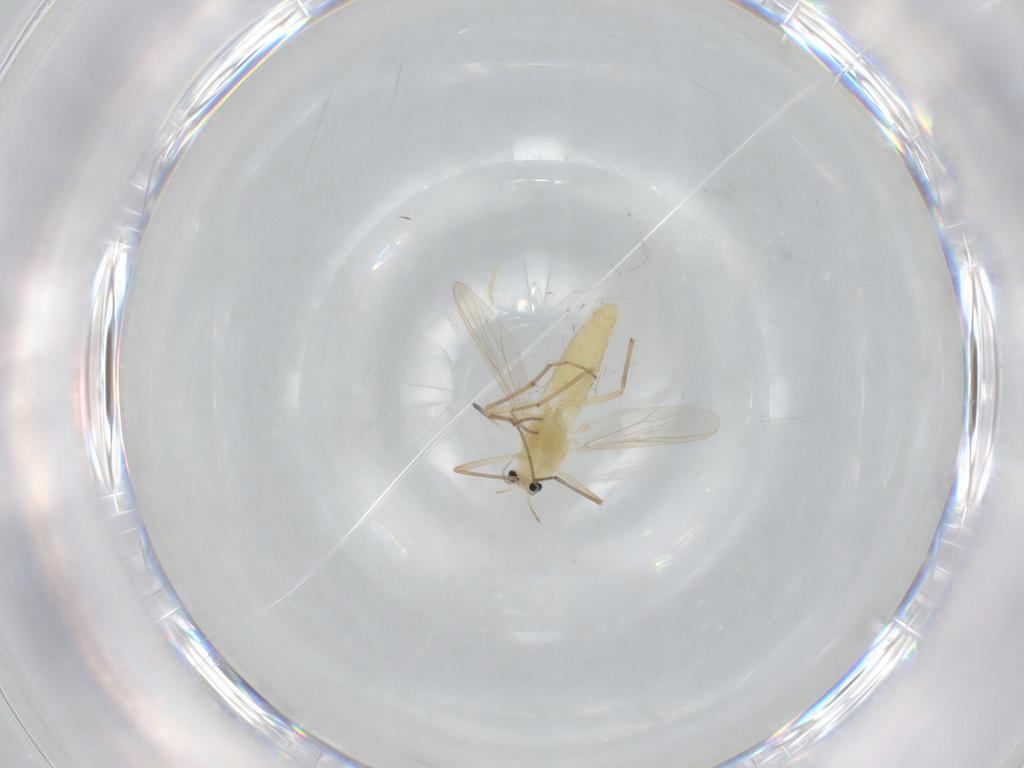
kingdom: Animalia
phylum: Arthropoda
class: Insecta
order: Diptera
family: Chironomidae
